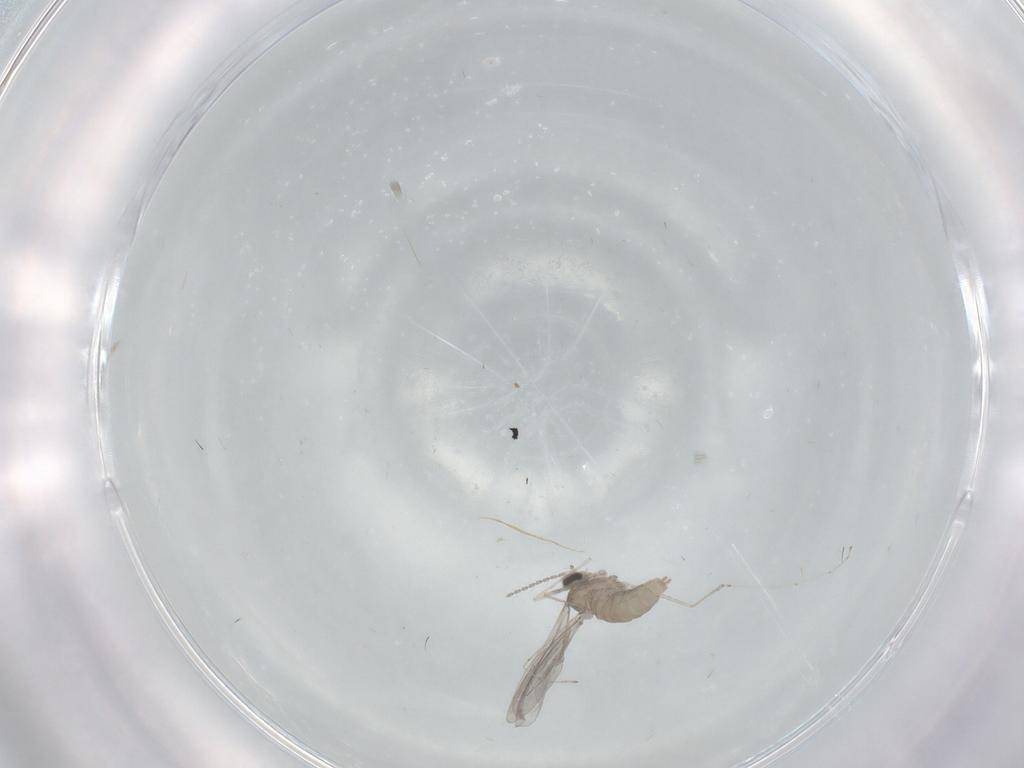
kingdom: Animalia
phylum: Arthropoda
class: Insecta
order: Diptera
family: Cecidomyiidae
